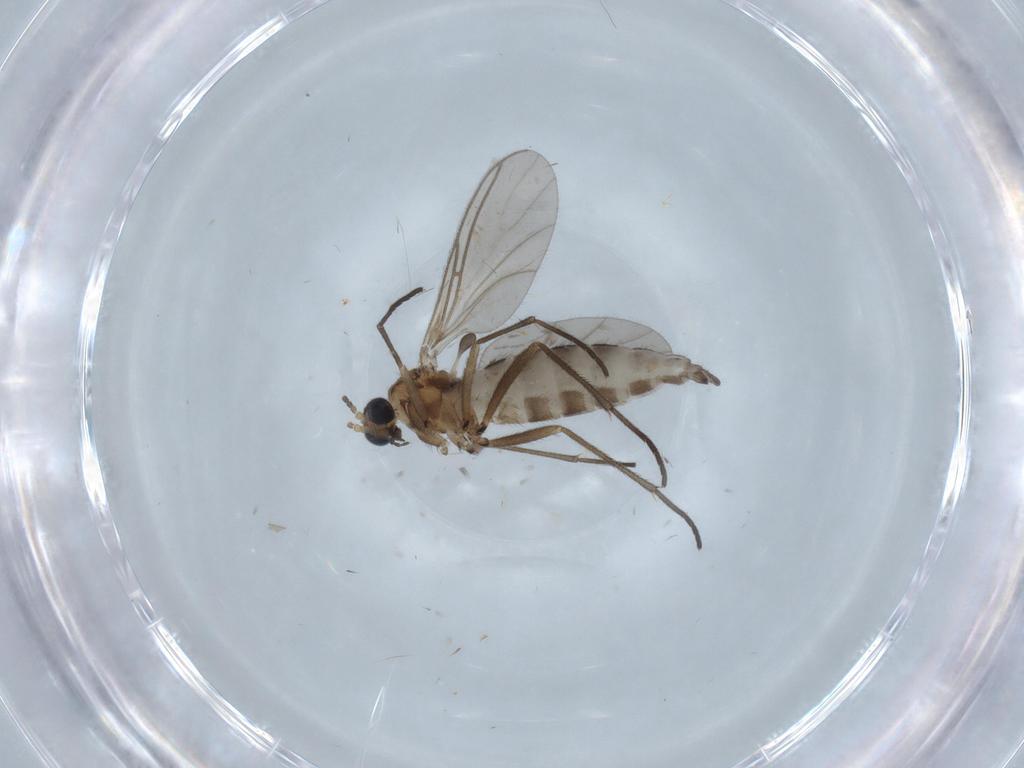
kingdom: Animalia
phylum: Arthropoda
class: Insecta
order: Diptera
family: Sciaridae
